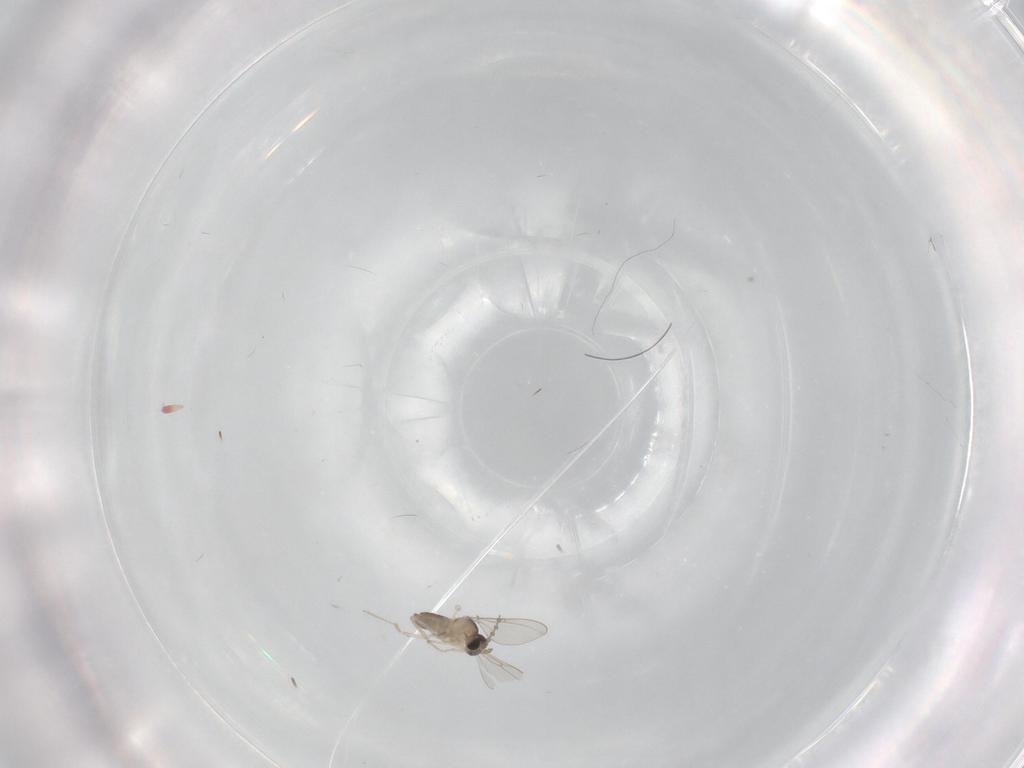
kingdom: Animalia
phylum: Arthropoda
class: Insecta
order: Diptera
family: Cecidomyiidae
